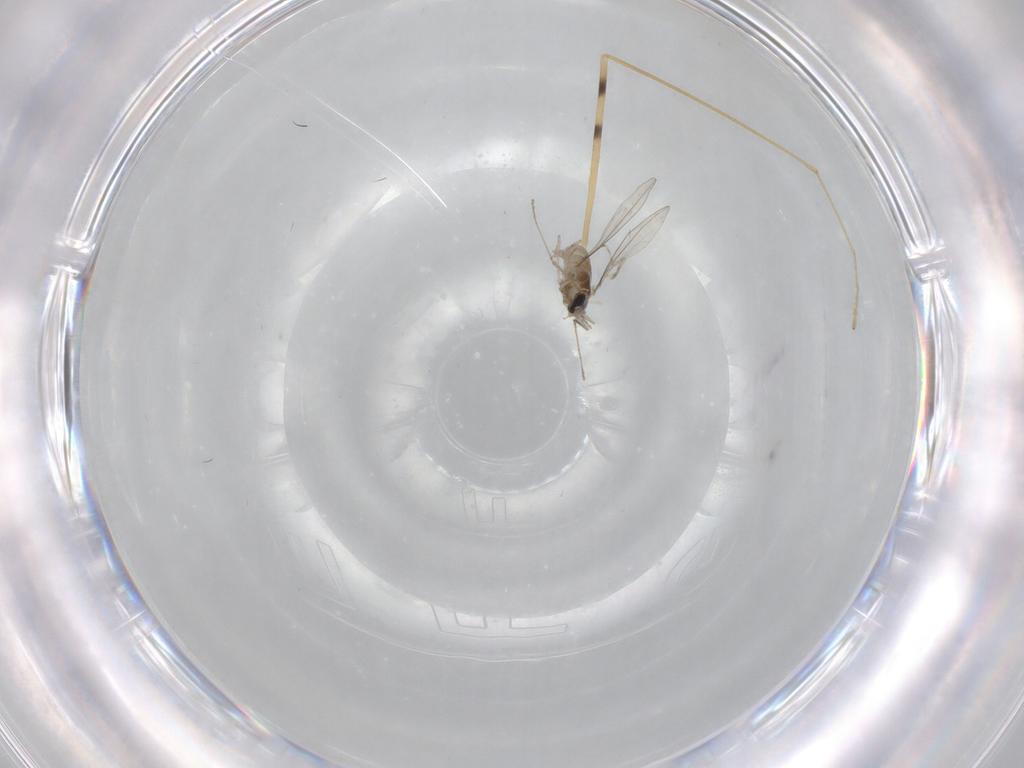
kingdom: Animalia
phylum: Arthropoda
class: Insecta
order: Diptera
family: Cecidomyiidae
